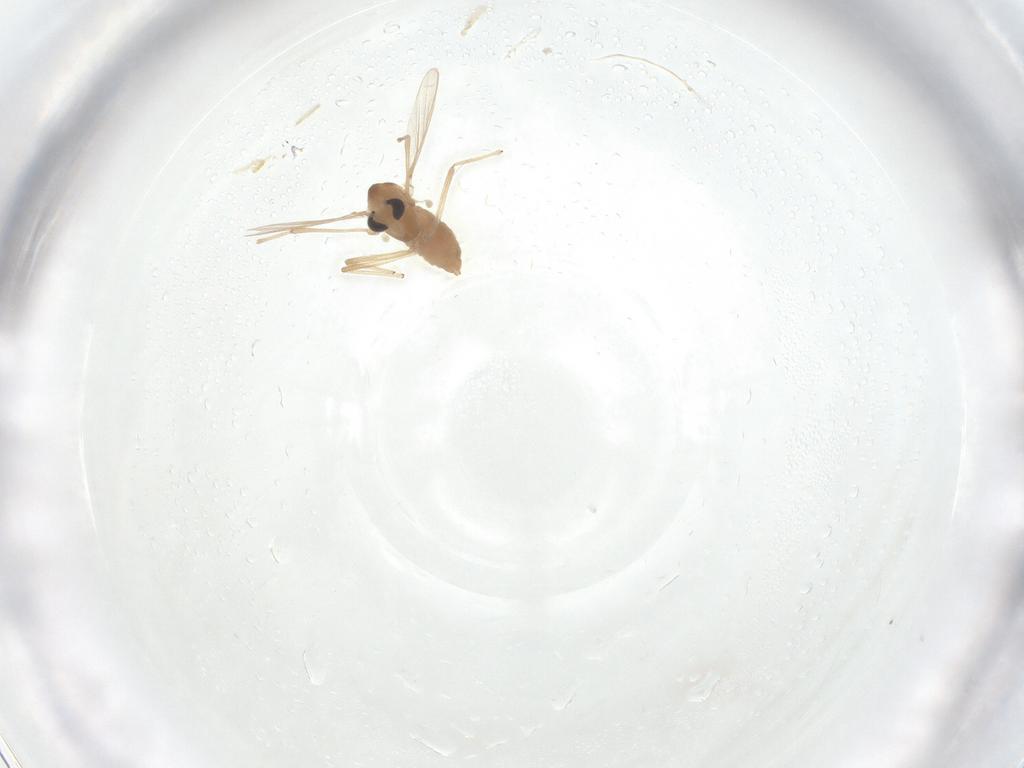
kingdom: Animalia
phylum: Arthropoda
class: Insecta
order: Diptera
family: Chironomidae
